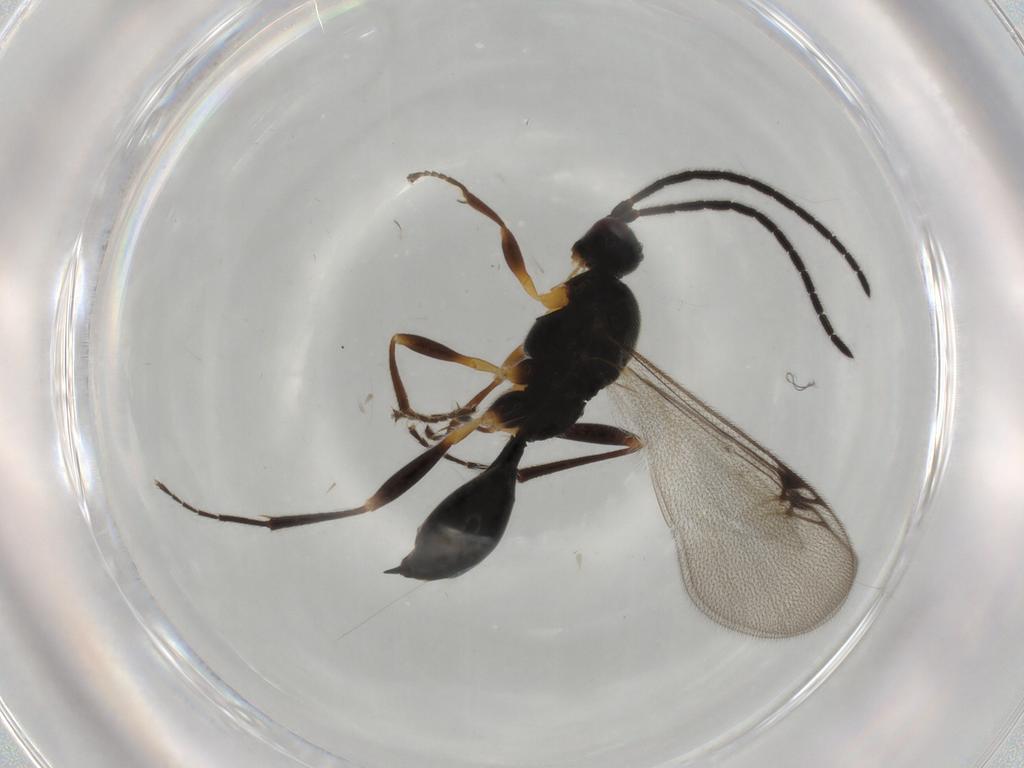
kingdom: Animalia
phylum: Arthropoda
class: Insecta
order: Hymenoptera
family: Proctotrupidae
